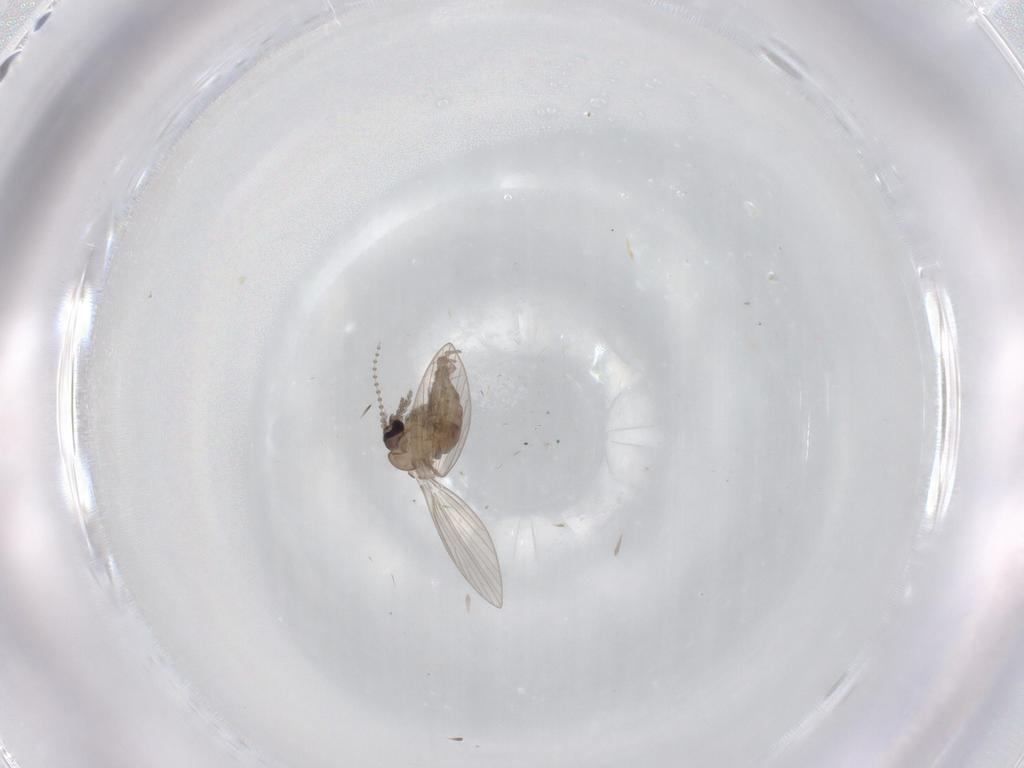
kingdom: Animalia
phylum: Arthropoda
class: Insecta
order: Diptera
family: Psychodidae
